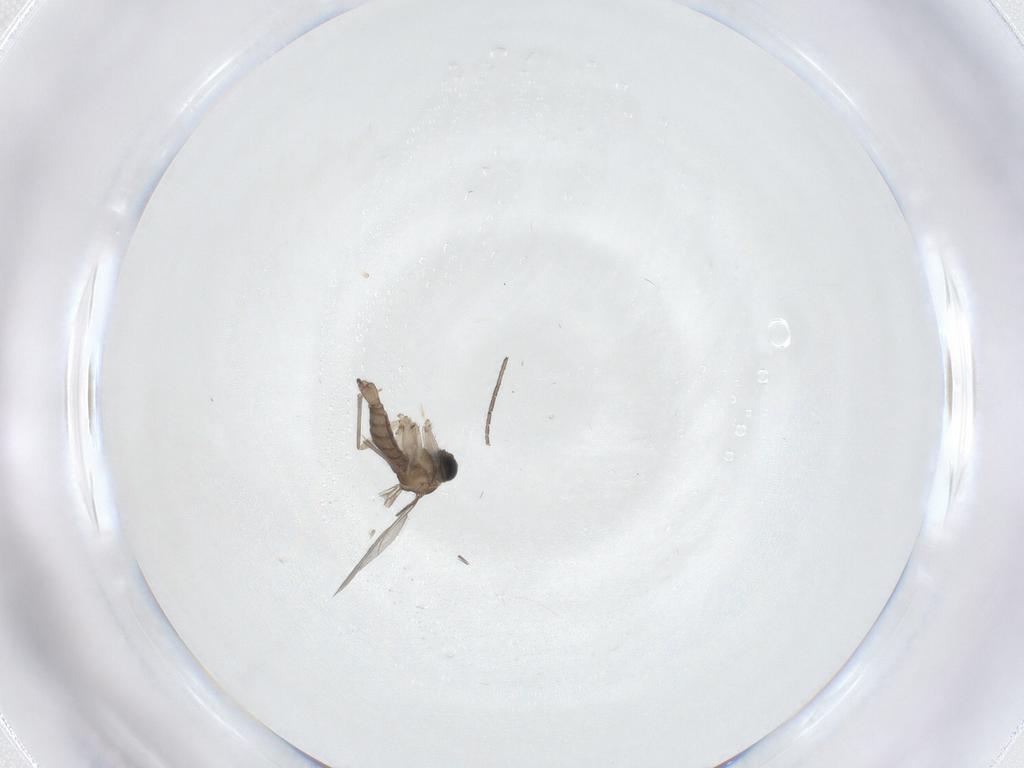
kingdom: Animalia
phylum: Arthropoda
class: Insecta
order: Diptera
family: Sciaridae
